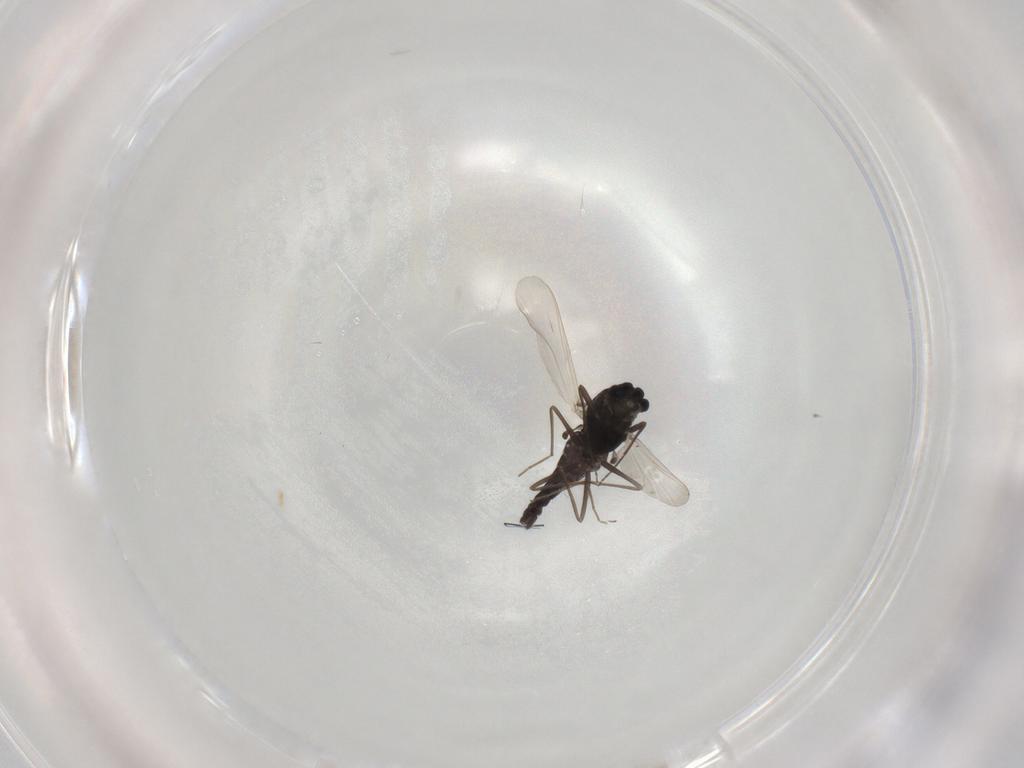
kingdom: Animalia
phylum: Arthropoda
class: Insecta
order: Diptera
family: Chironomidae
